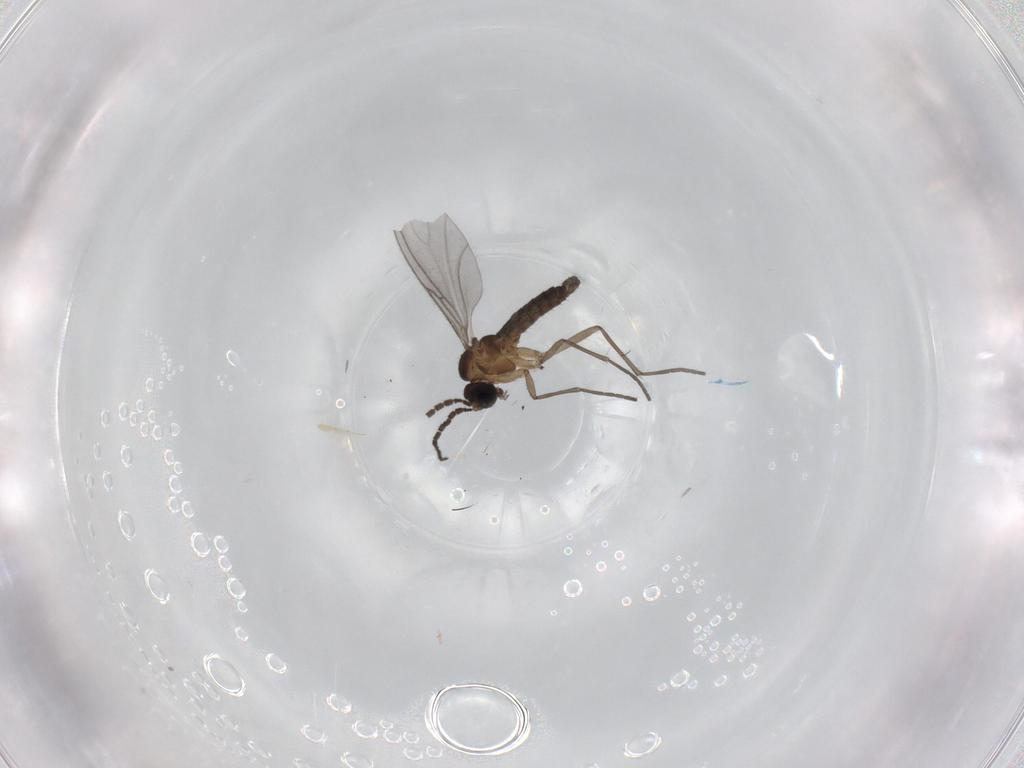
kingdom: Animalia
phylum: Arthropoda
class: Insecta
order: Diptera
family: Sciaridae
